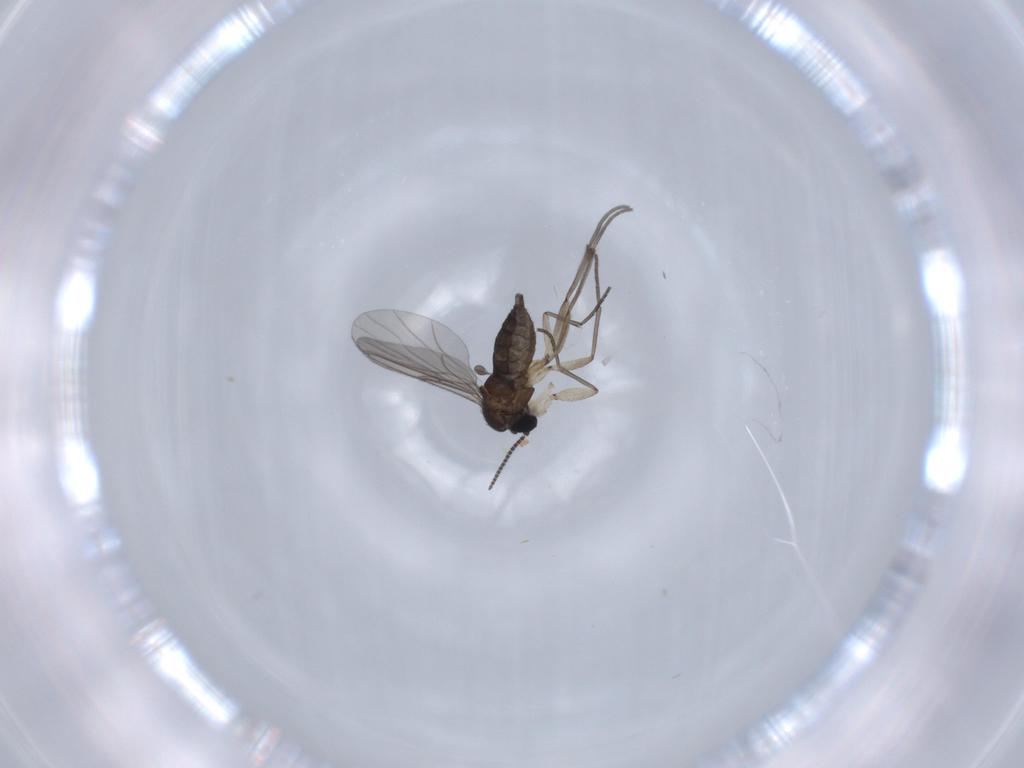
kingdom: Animalia
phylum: Arthropoda
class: Insecta
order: Diptera
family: Sciaridae
